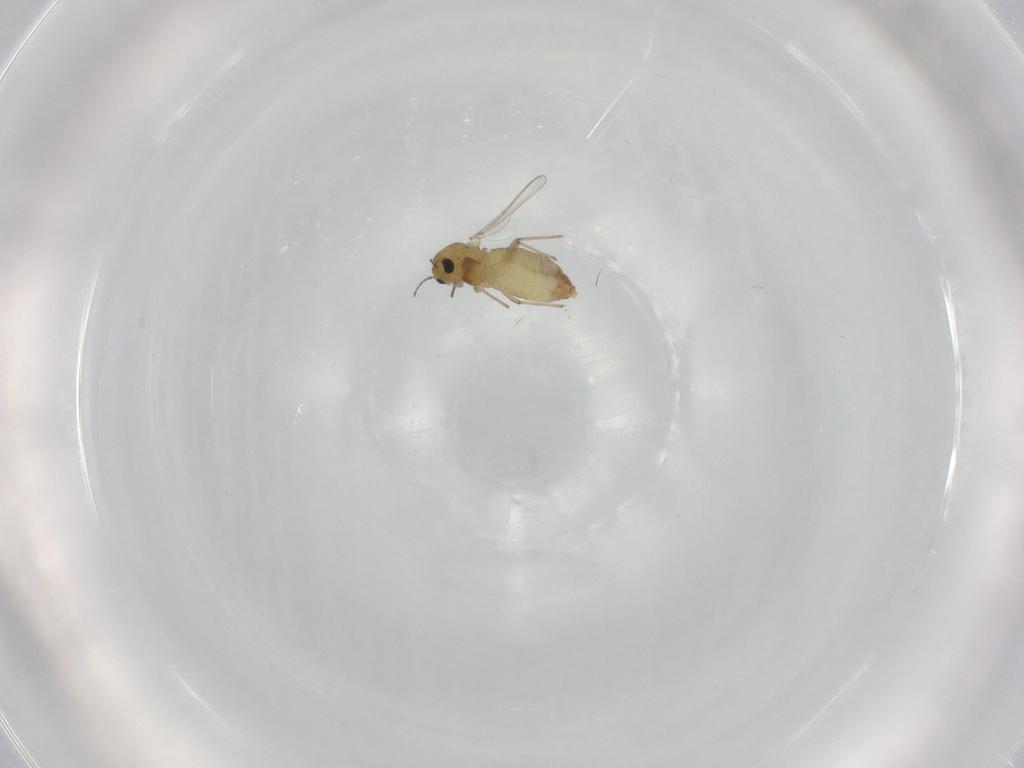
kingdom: Animalia
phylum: Arthropoda
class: Insecta
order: Diptera
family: Chironomidae
